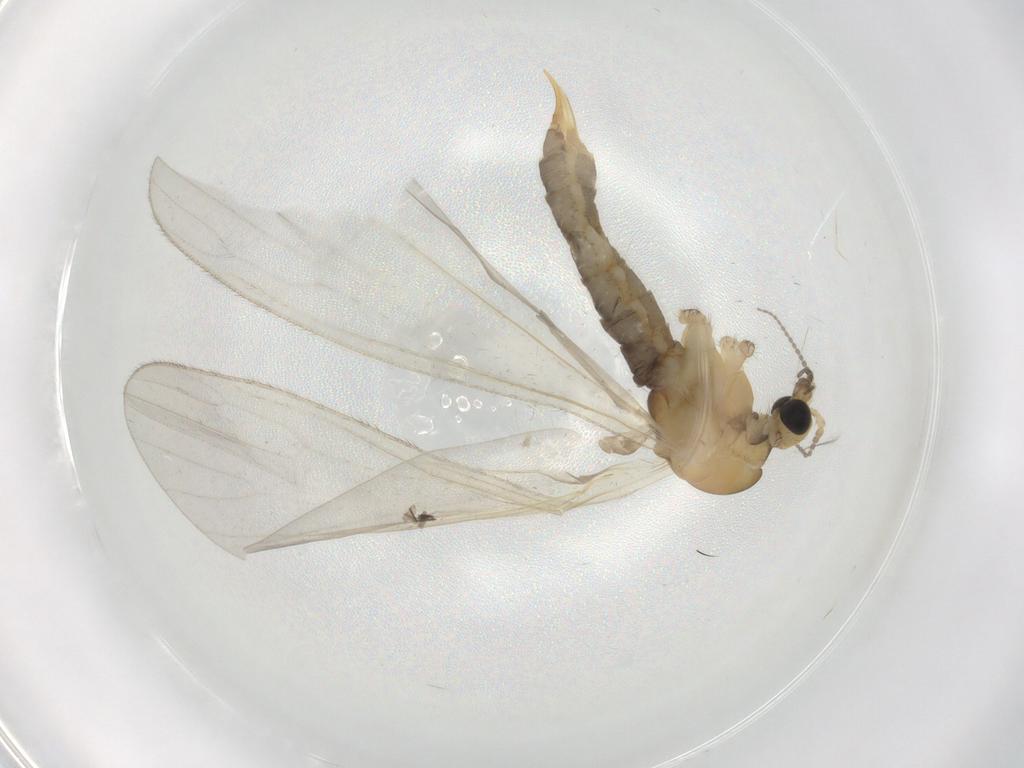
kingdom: Animalia
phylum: Arthropoda
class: Insecta
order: Diptera
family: Limoniidae
